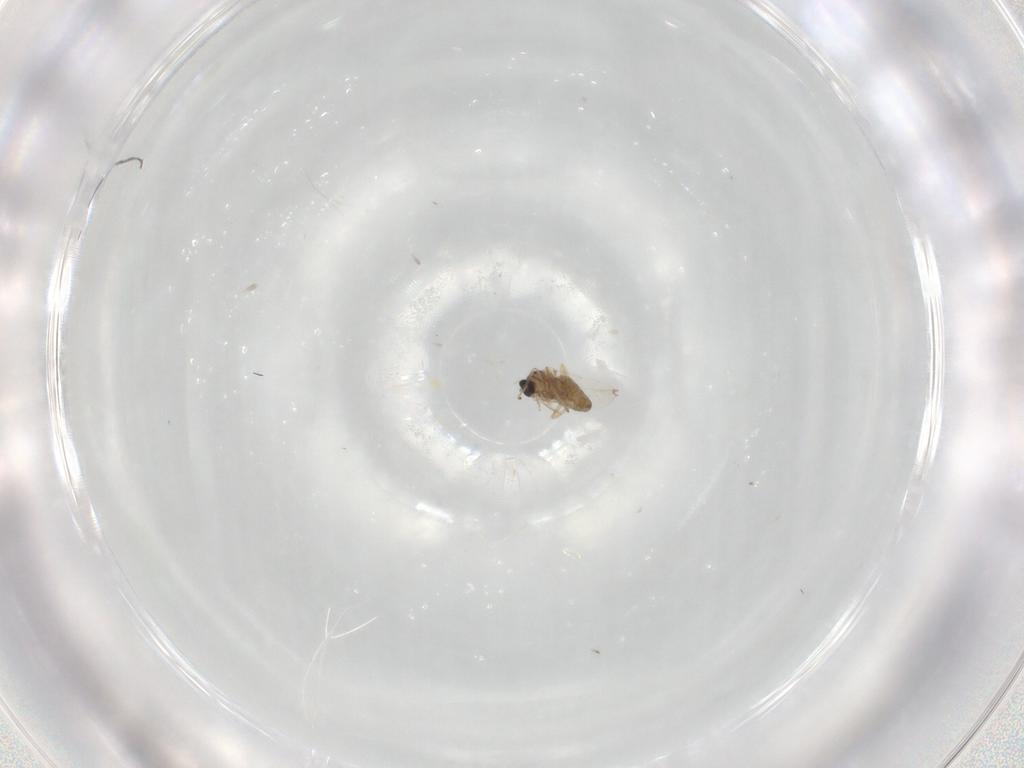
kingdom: Animalia
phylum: Arthropoda
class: Insecta
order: Diptera
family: Cecidomyiidae
